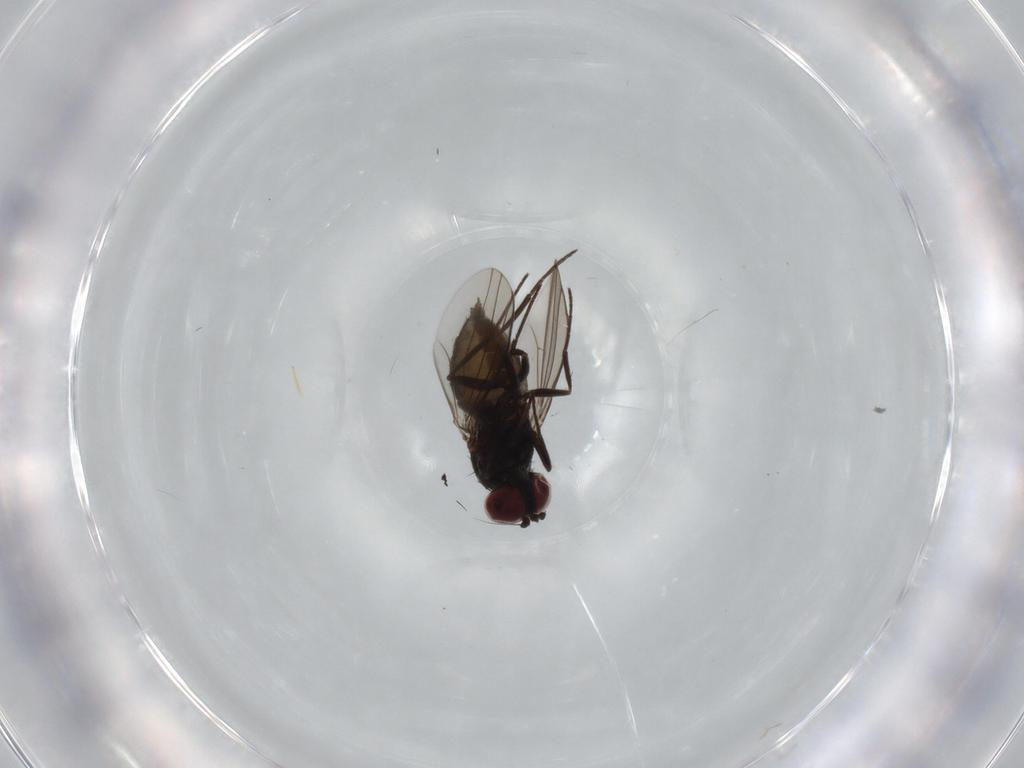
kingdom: Animalia
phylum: Arthropoda
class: Insecta
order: Diptera
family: Dolichopodidae
